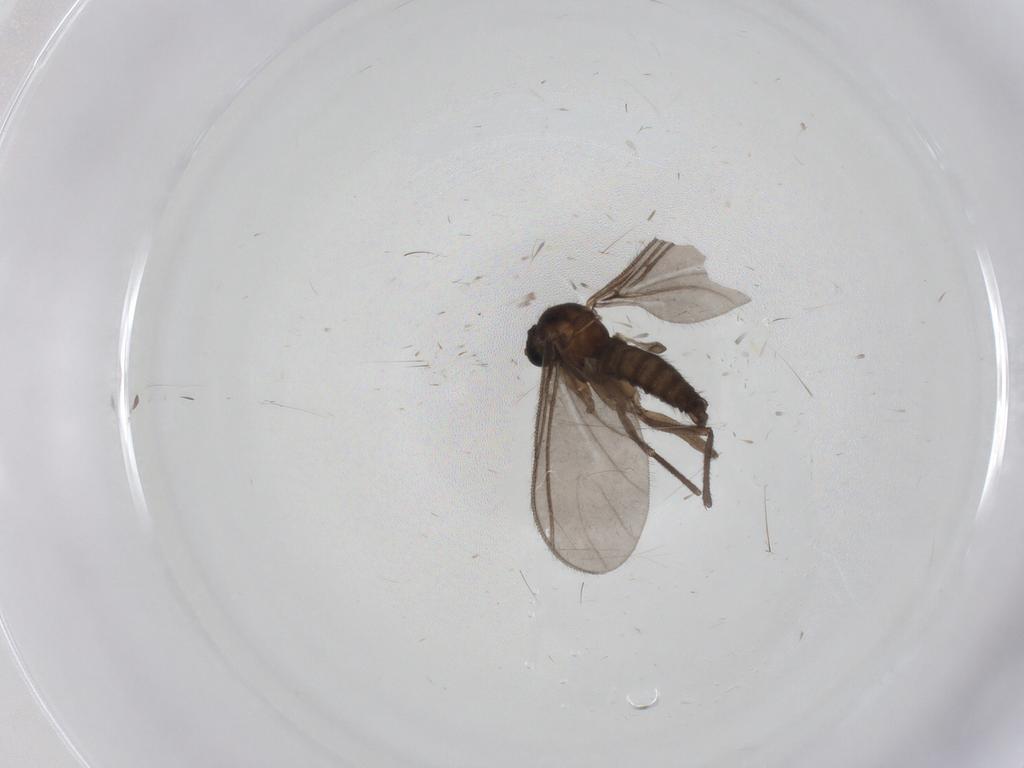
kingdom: Animalia
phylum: Arthropoda
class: Insecta
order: Diptera
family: Sciaridae
